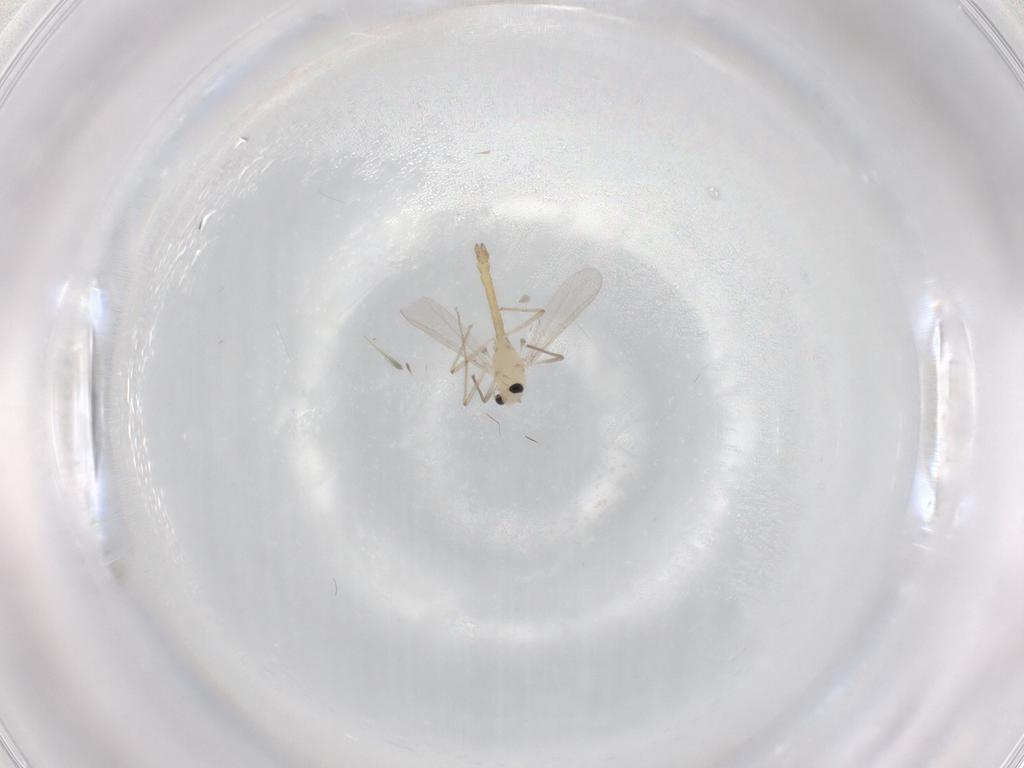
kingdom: Animalia
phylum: Arthropoda
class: Insecta
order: Diptera
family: Chironomidae
